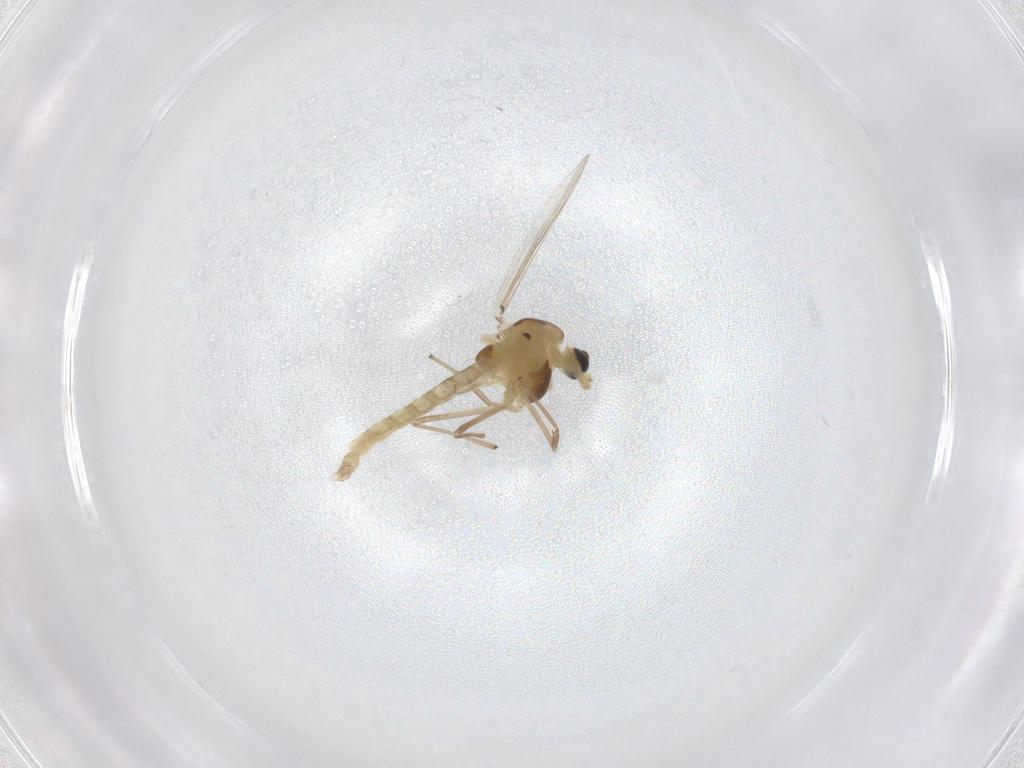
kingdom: Animalia
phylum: Arthropoda
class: Insecta
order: Diptera
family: Chironomidae
